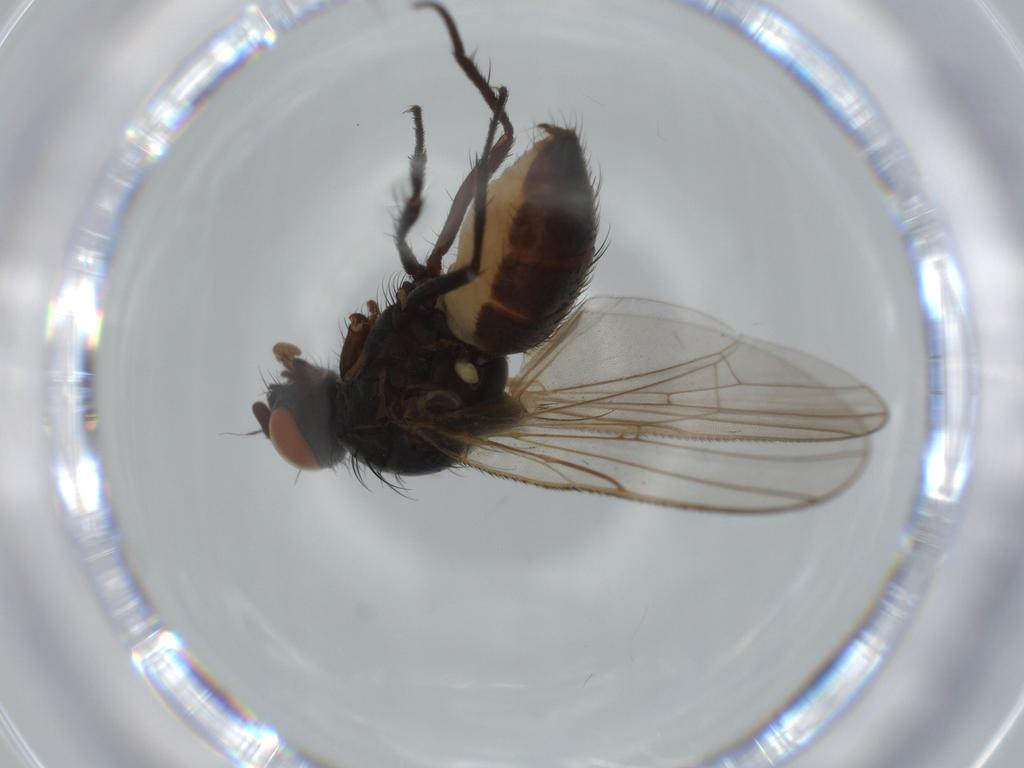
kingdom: Animalia
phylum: Arthropoda
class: Insecta
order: Diptera
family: Anthomyiidae
